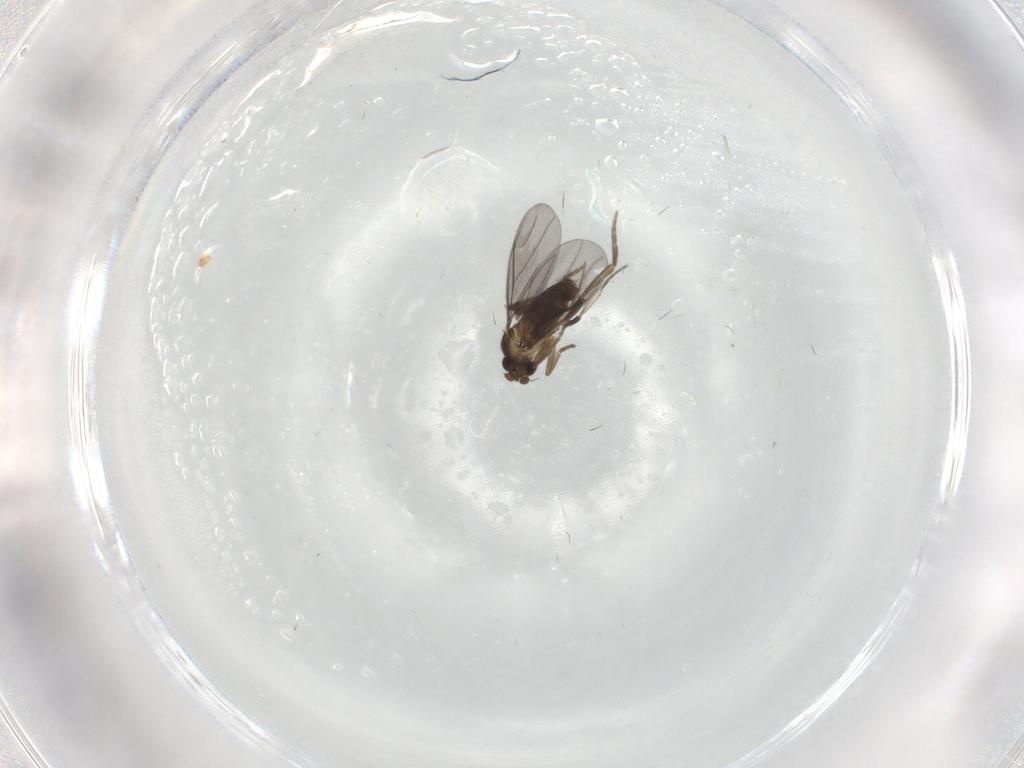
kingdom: Animalia
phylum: Arthropoda
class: Insecta
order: Diptera
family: Phoridae
